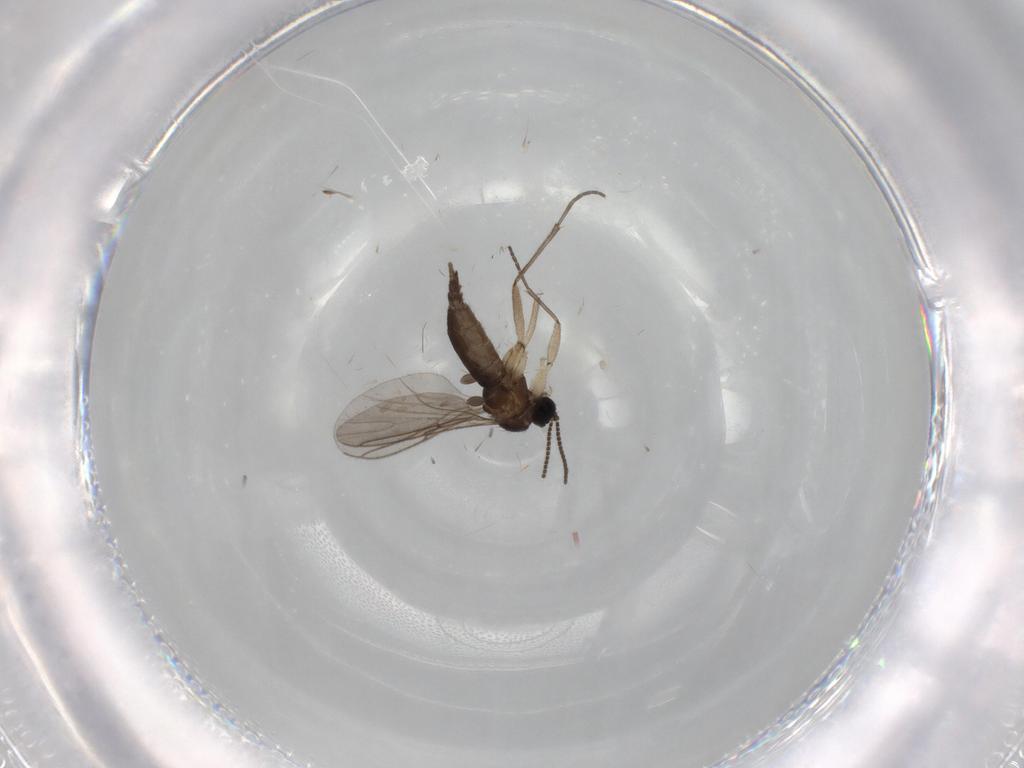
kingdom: Animalia
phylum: Arthropoda
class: Insecta
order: Diptera
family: Sciaridae
